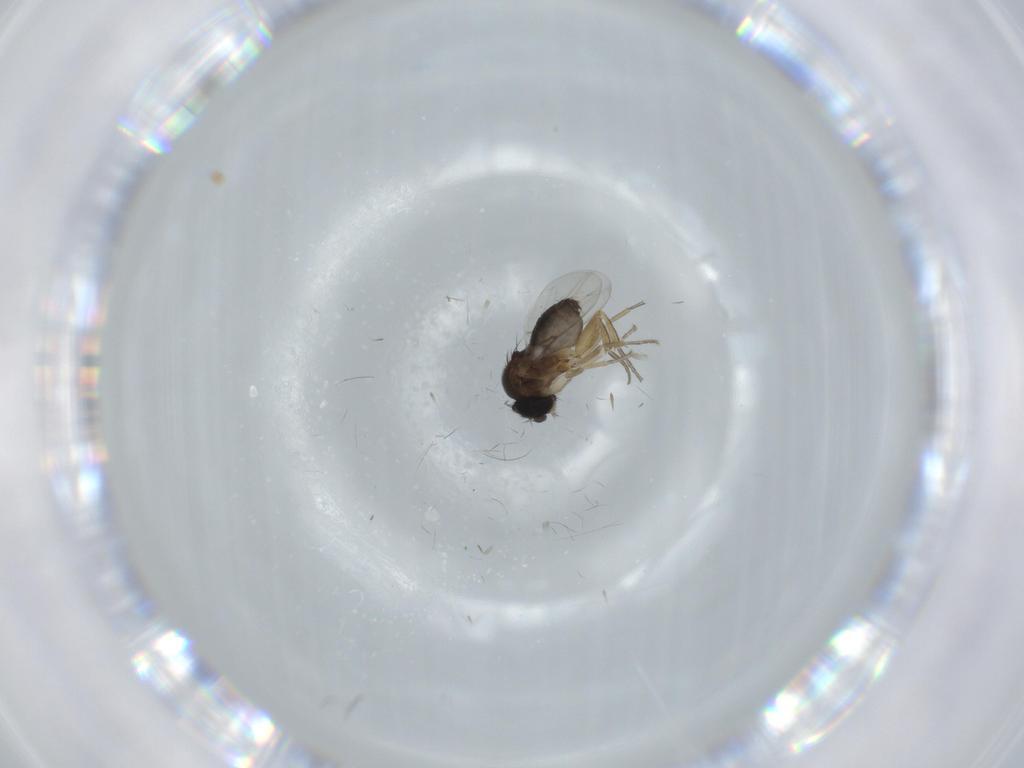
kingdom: Animalia
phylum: Arthropoda
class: Insecta
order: Diptera
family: Phoridae
